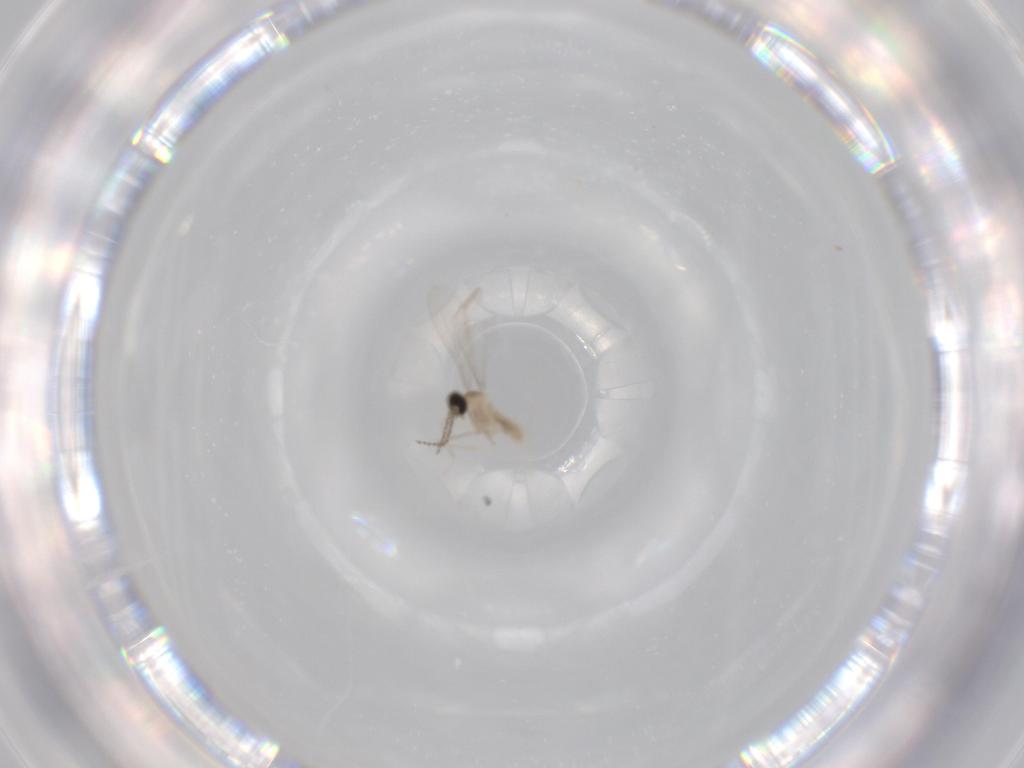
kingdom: Animalia
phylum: Arthropoda
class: Insecta
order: Diptera
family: Cecidomyiidae
